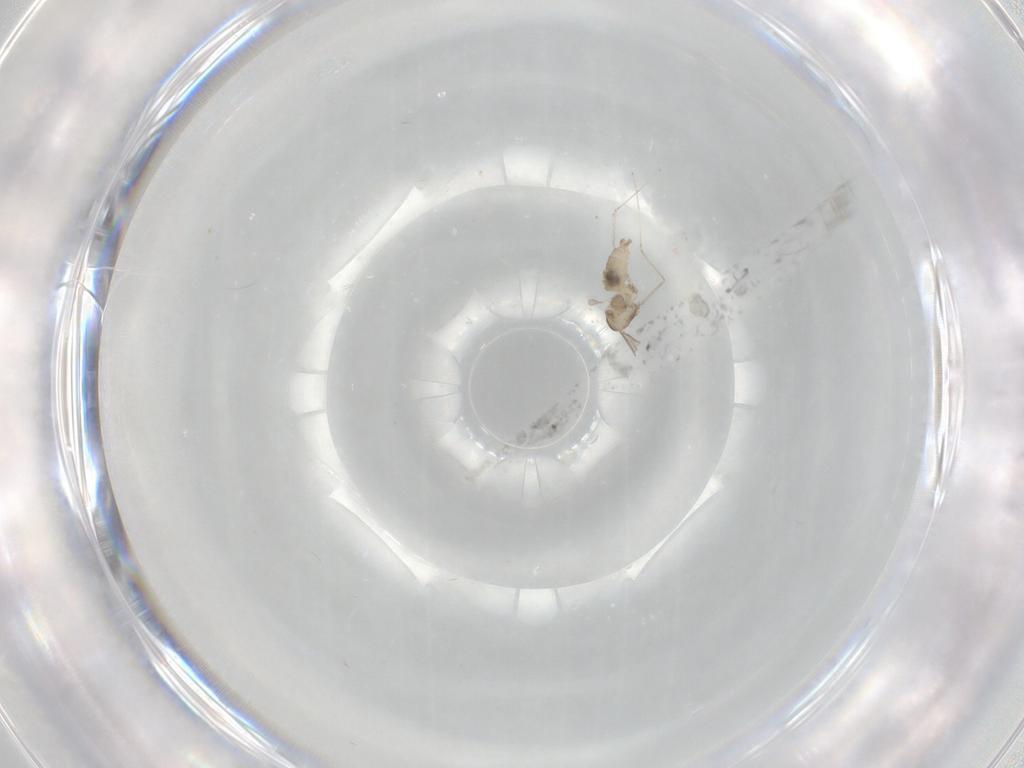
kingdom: Animalia
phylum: Arthropoda
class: Insecta
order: Diptera
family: Cecidomyiidae
